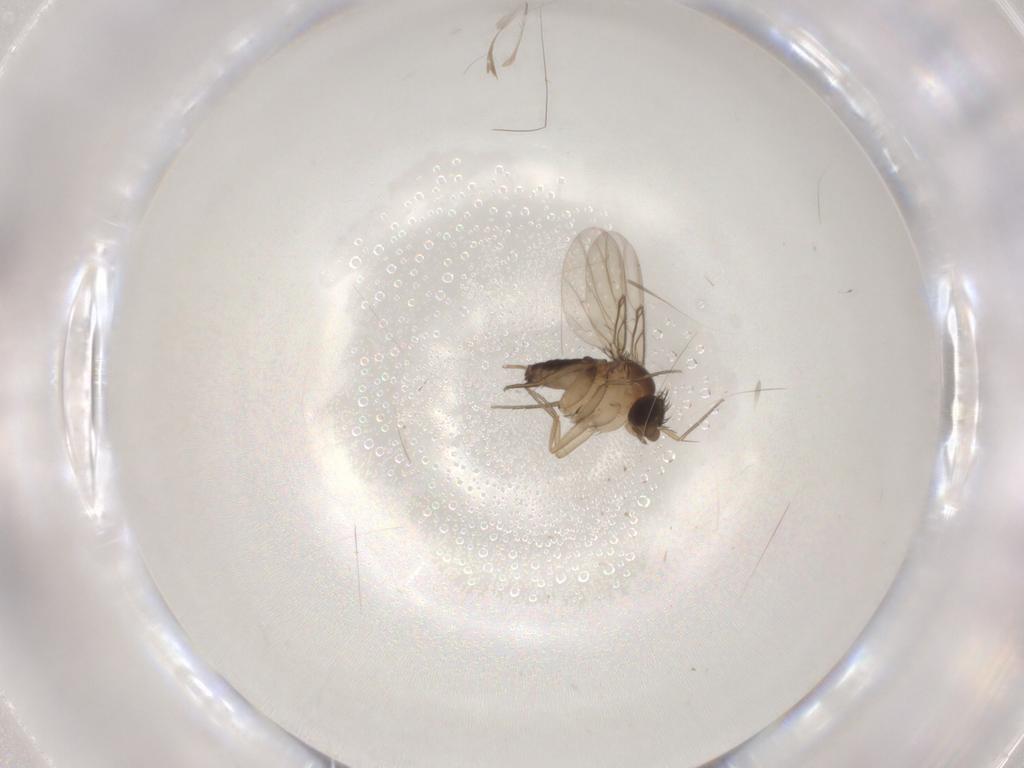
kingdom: Animalia
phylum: Arthropoda
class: Insecta
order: Diptera
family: Phoridae
